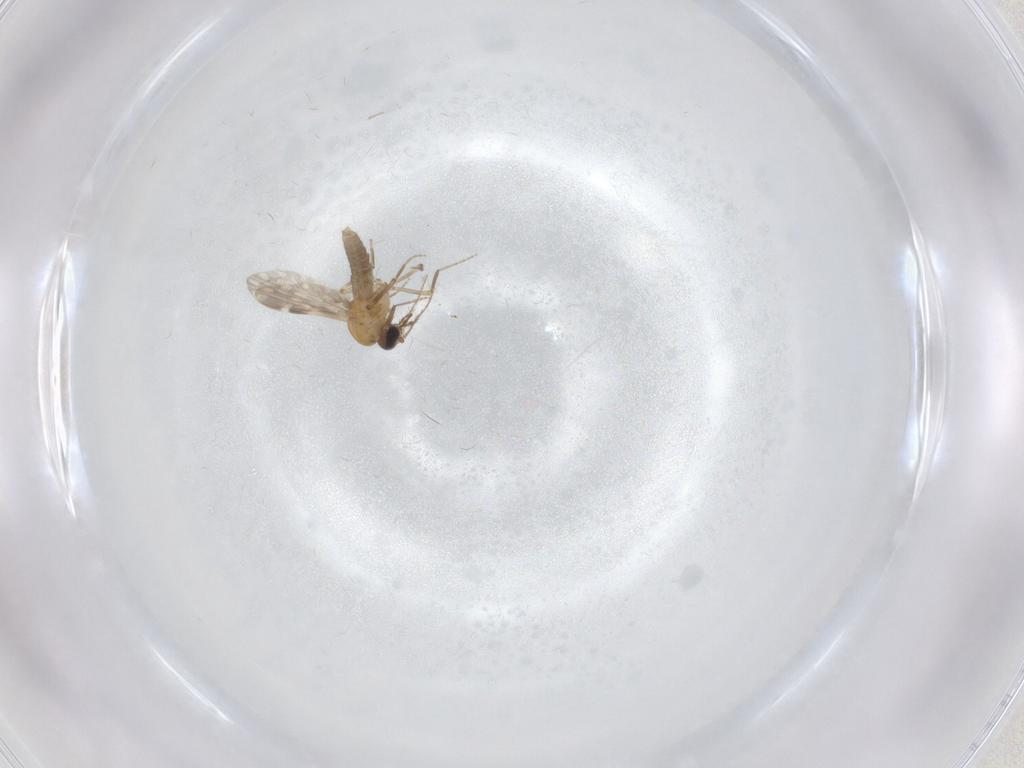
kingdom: Animalia
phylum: Arthropoda
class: Insecta
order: Diptera
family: Ceratopogonidae
